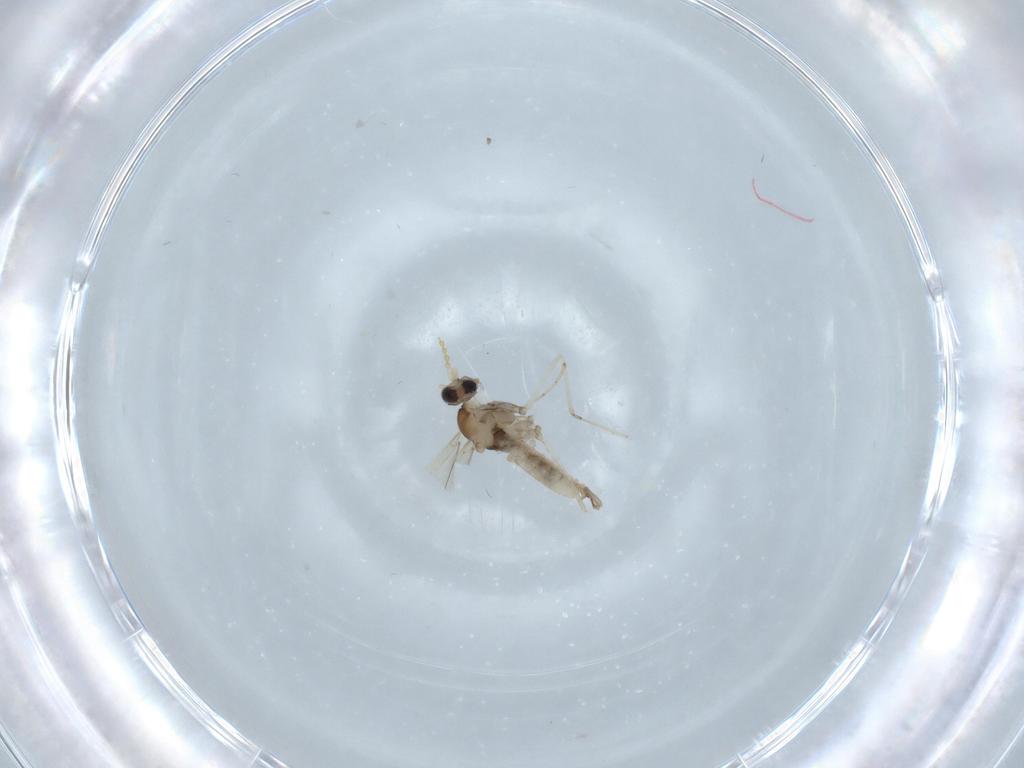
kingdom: Animalia
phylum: Arthropoda
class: Insecta
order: Diptera
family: Cecidomyiidae
